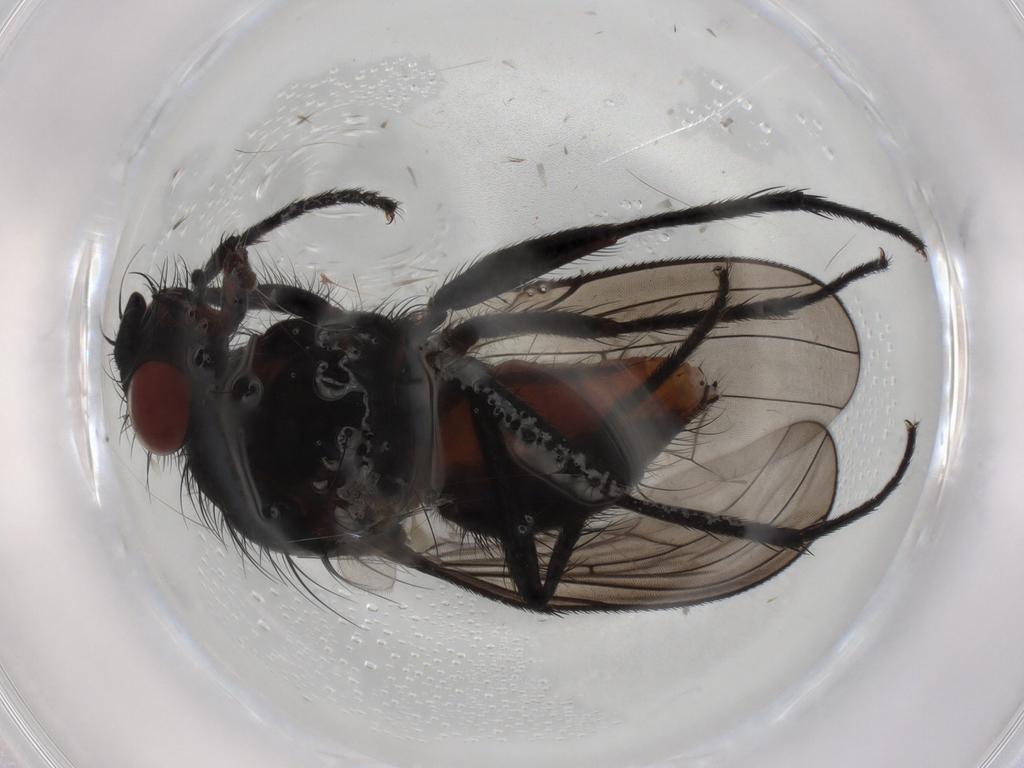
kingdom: Animalia
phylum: Arthropoda
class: Insecta
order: Diptera
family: Anthomyiidae
